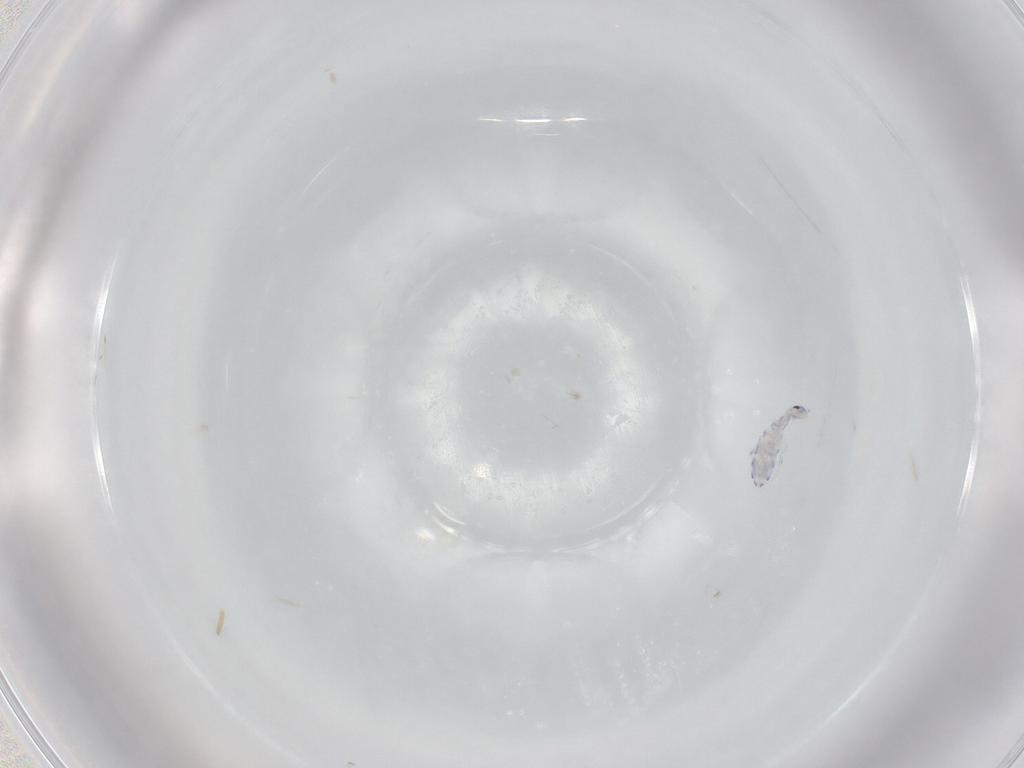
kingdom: Animalia
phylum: Arthropoda
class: Collembola
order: Entomobryomorpha
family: Entomobryidae
